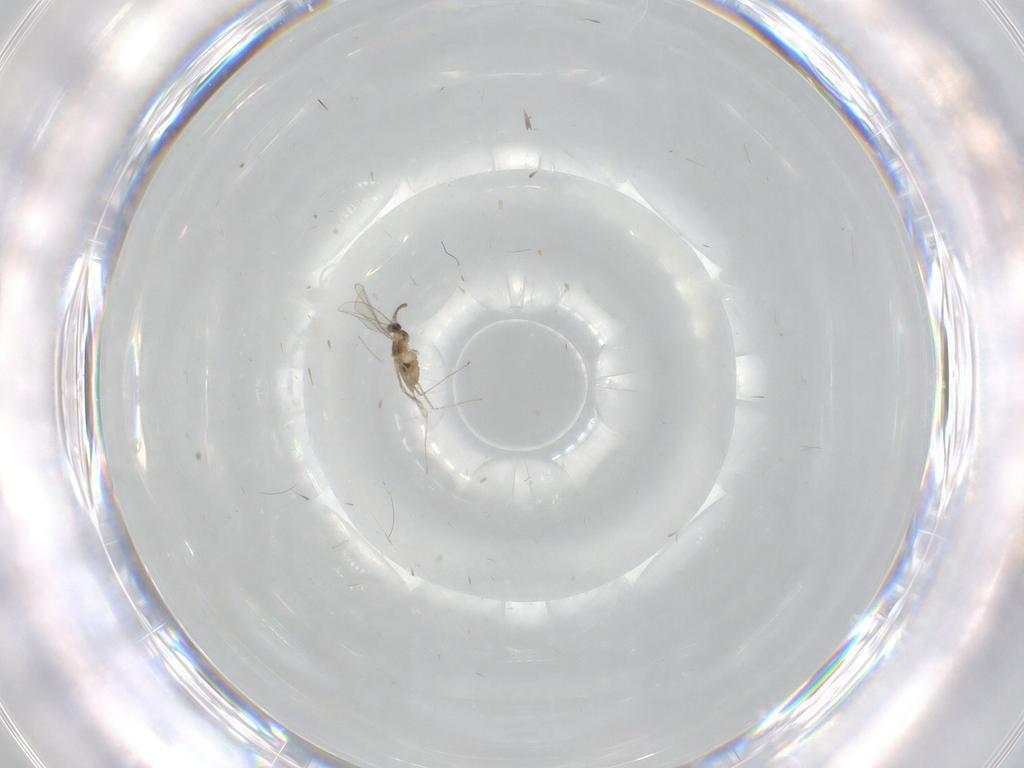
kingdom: Animalia
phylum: Arthropoda
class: Insecta
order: Diptera
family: Cecidomyiidae
